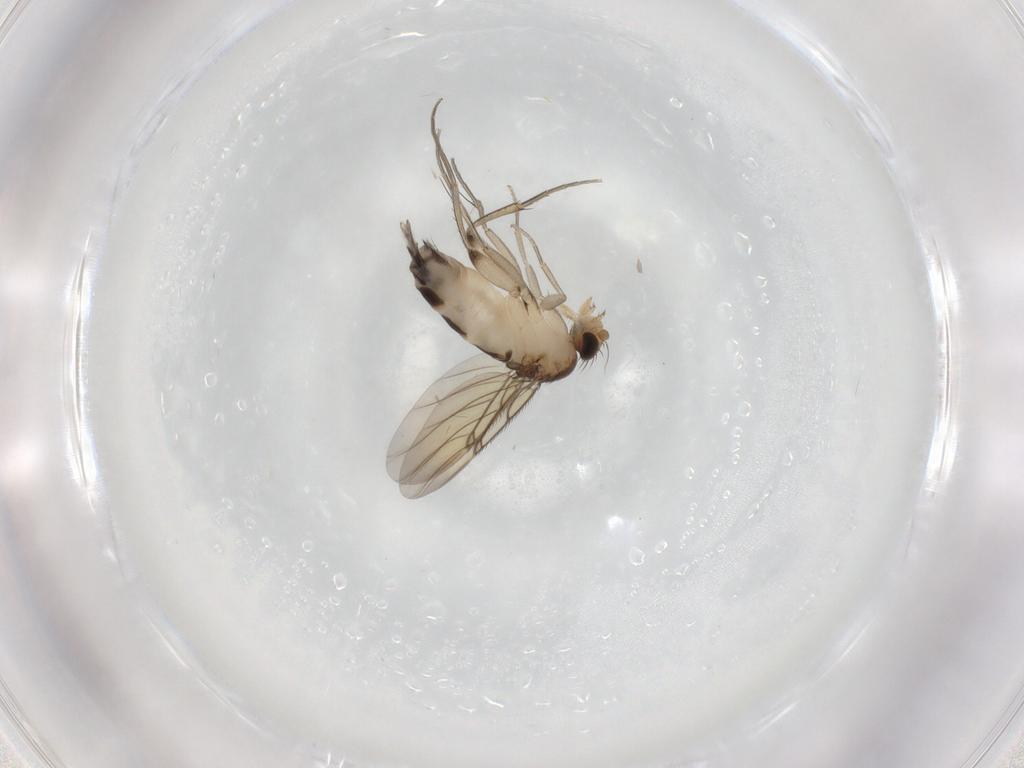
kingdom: Animalia
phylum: Arthropoda
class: Insecta
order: Diptera
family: Phoridae
